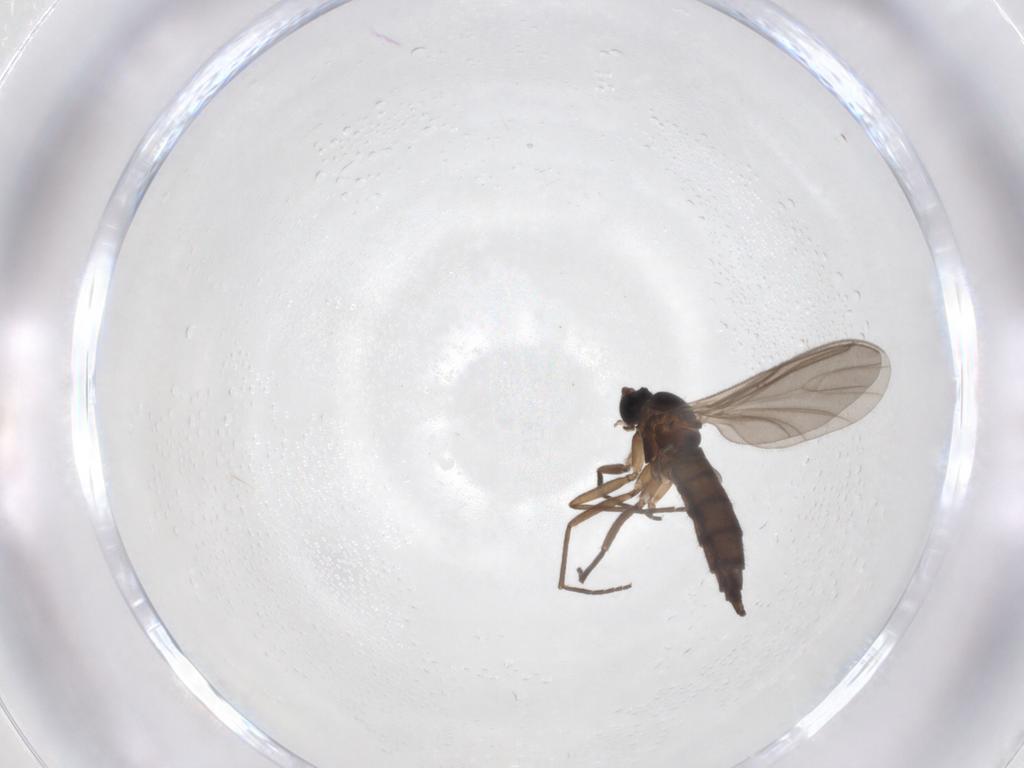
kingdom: Animalia
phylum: Arthropoda
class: Insecta
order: Diptera
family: Sciaridae
